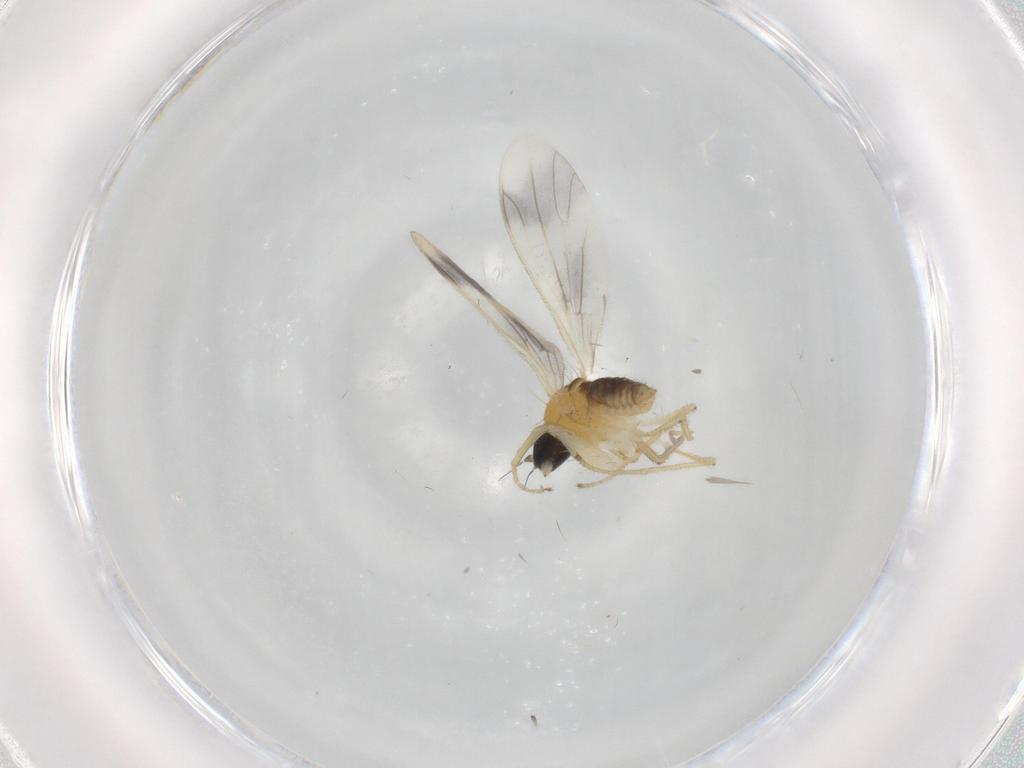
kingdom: Animalia
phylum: Arthropoda
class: Insecta
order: Diptera
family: Empididae
